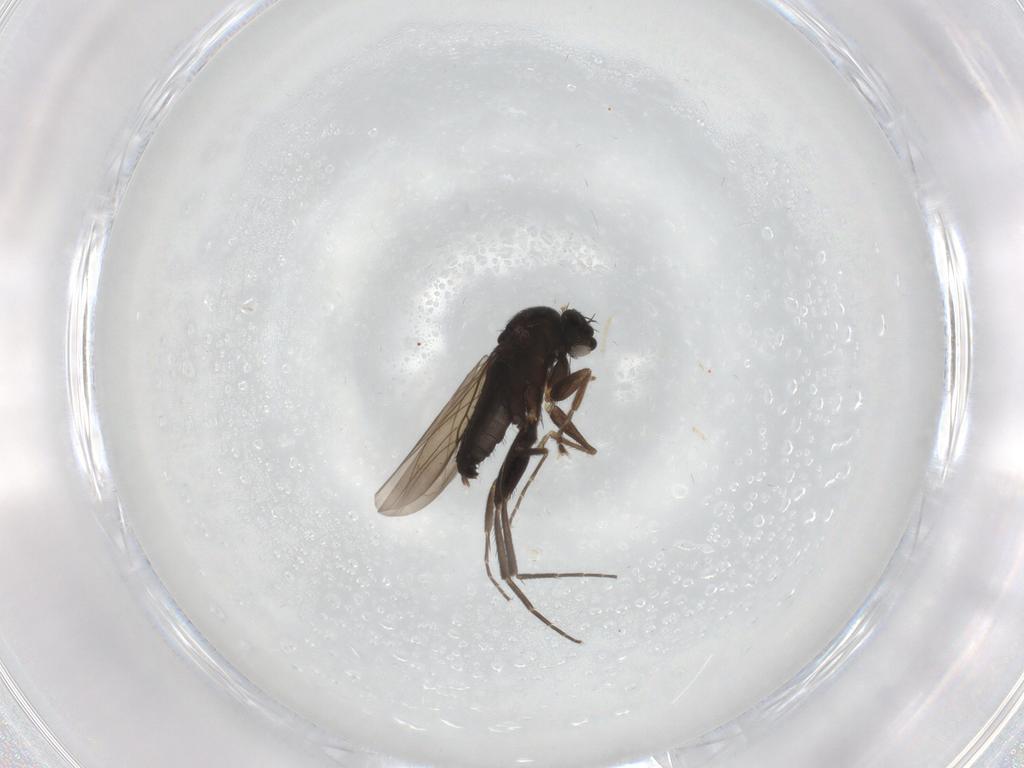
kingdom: Animalia
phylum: Arthropoda
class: Insecta
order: Diptera
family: Phoridae
